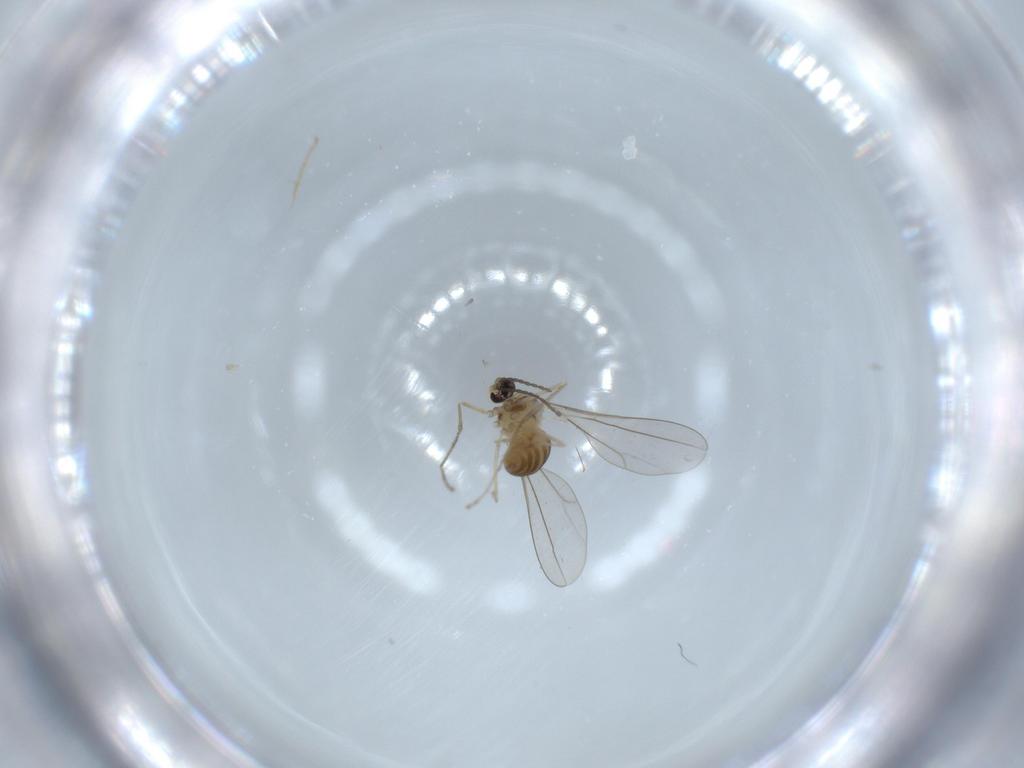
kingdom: Animalia
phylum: Arthropoda
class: Insecta
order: Diptera
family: Cecidomyiidae
